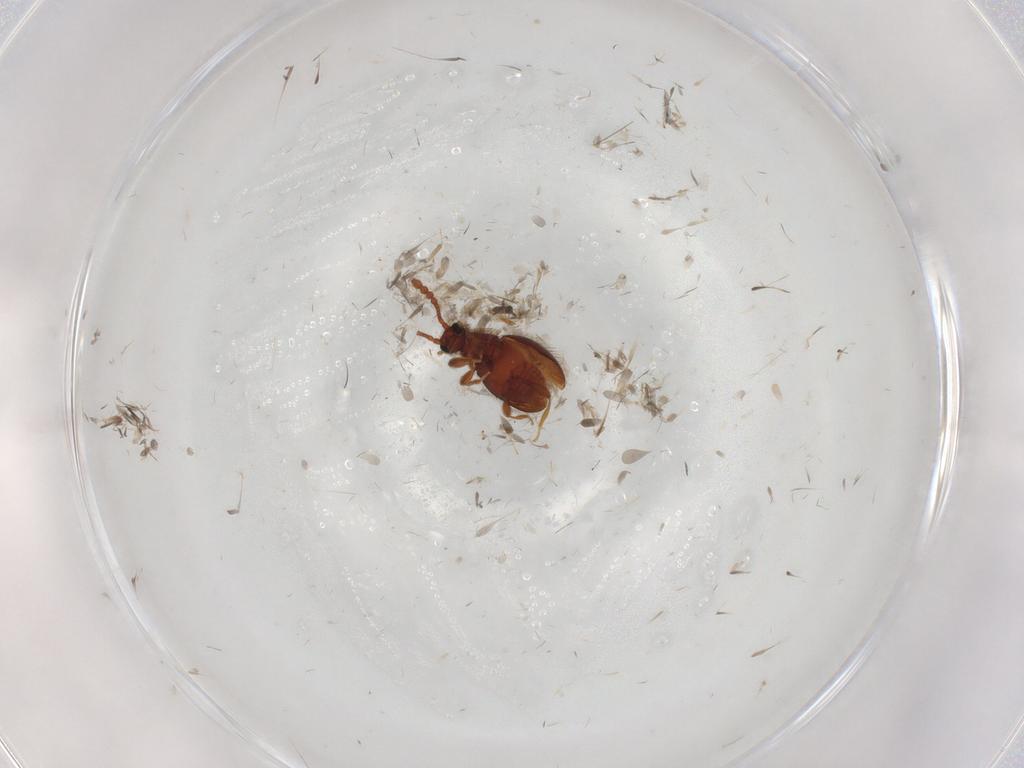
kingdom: Animalia
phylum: Arthropoda
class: Insecta
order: Coleoptera
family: Staphylinidae
